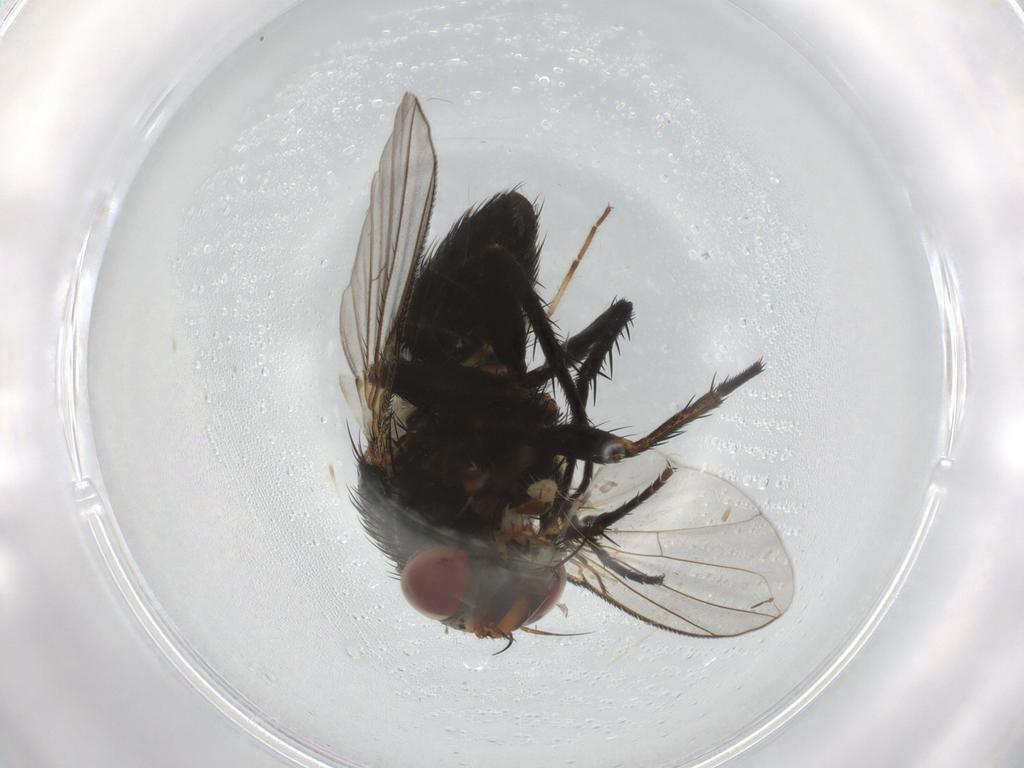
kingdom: Animalia
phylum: Arthropoda
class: Insecta
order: Diptera
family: Tachinidae
